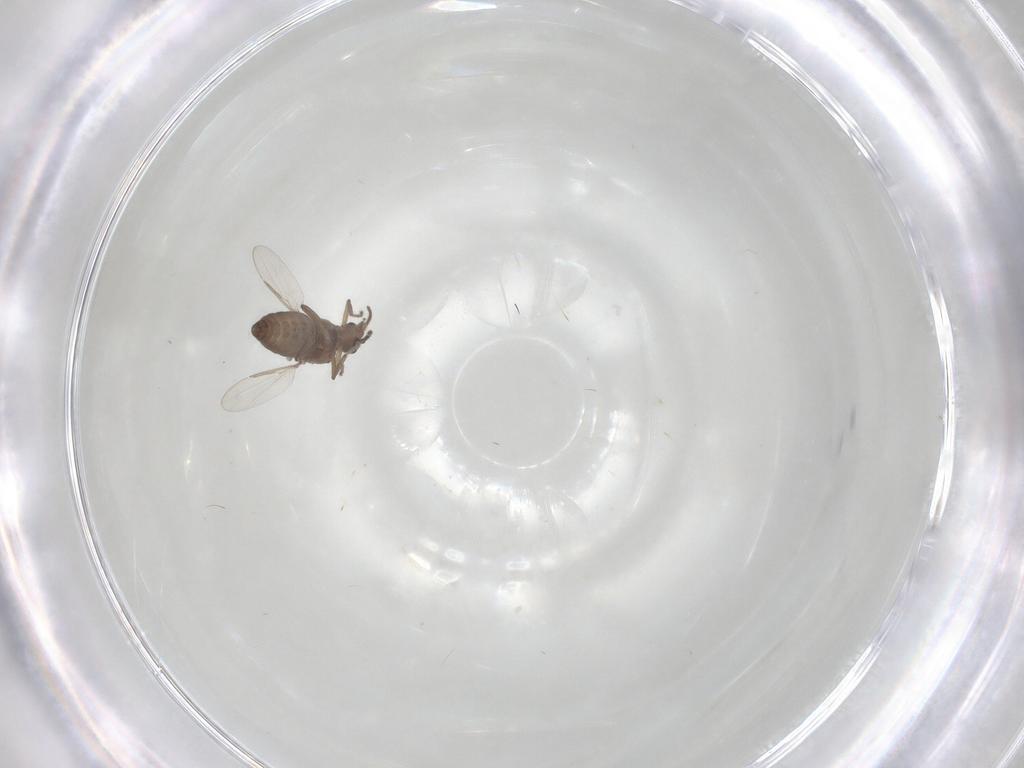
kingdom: Animalia
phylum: Arthropoda
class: Insecta
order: Diptera
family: Ceratopogonidae
